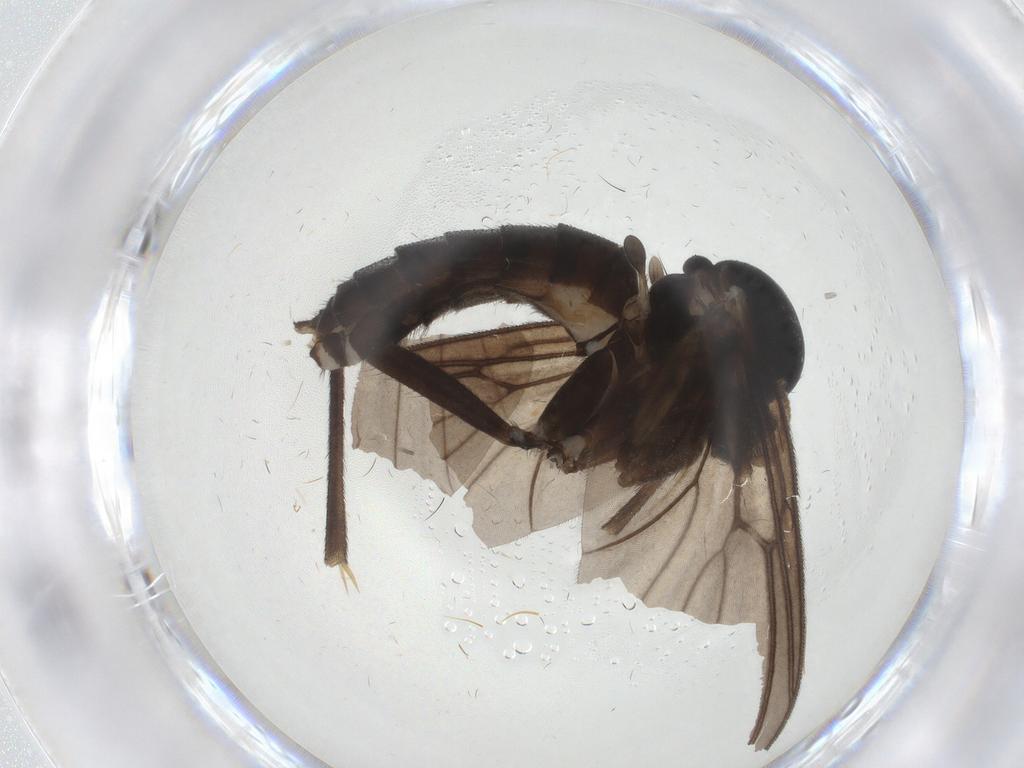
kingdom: Animalia
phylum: Arthropoda
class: Insecta
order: Diptera
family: Mycetophilidae
